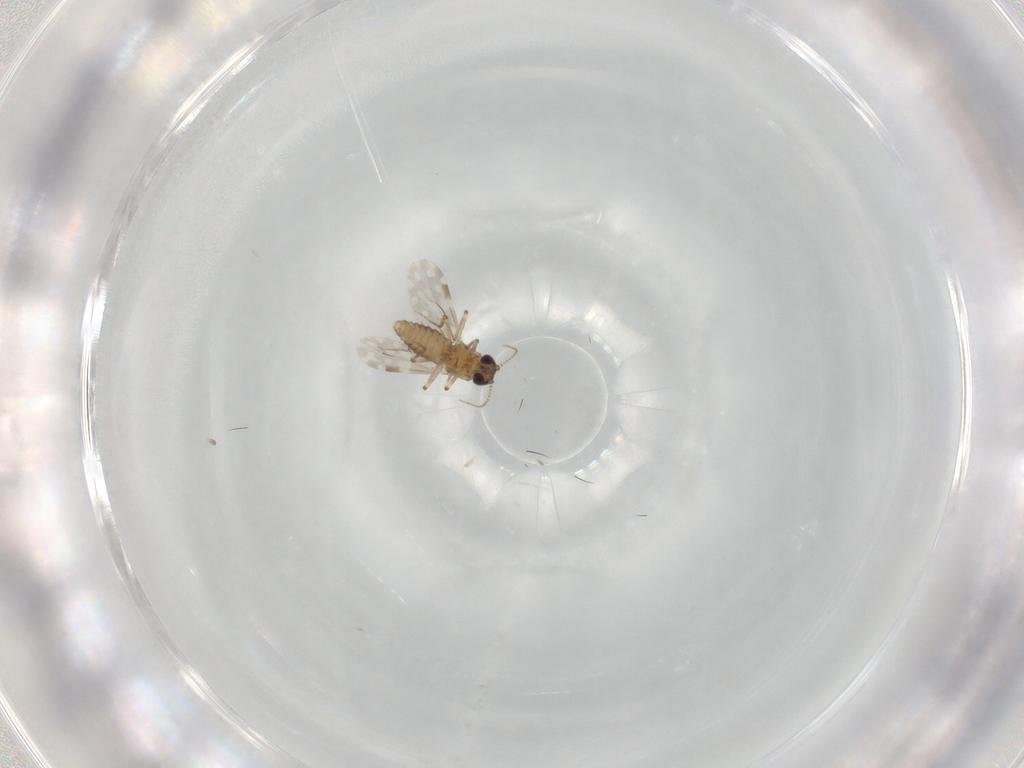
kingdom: Animalia
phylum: Arthropoda
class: Insecta
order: Diptera
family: Ceratopogonidae
